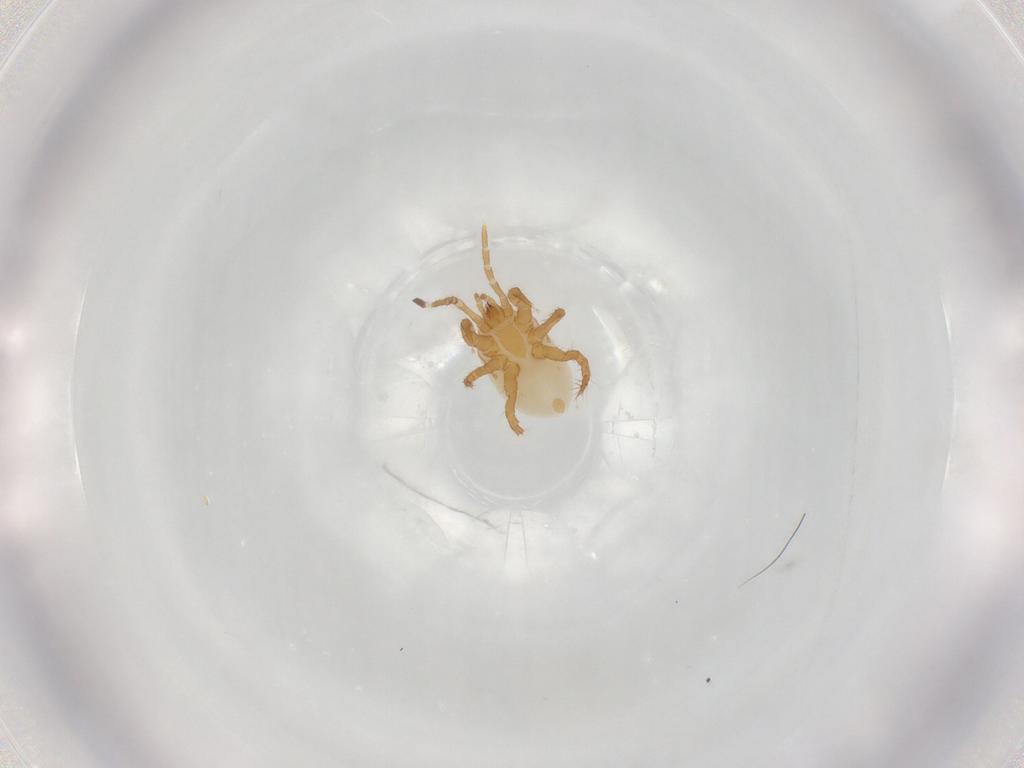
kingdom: Animalia
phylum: Arthropoda
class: Arachnida
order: Mesostigmata
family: Parasitidae
